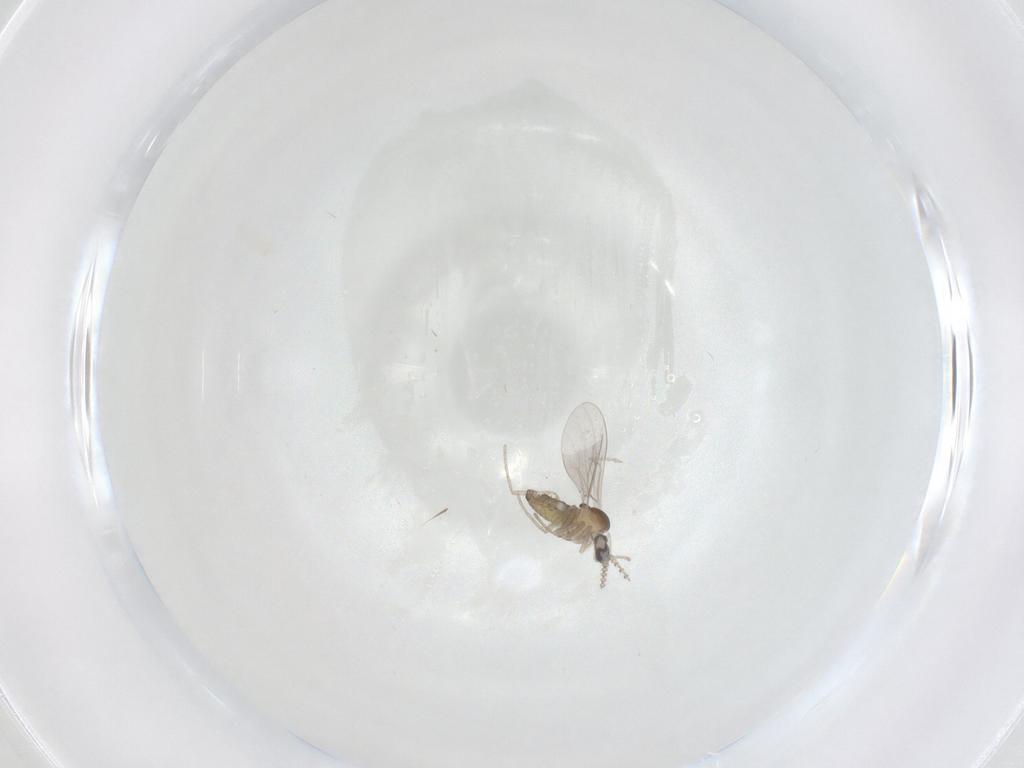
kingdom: Animalia
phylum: Arthropoda
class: Insecta
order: Diptera
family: Cecidomyiidae
